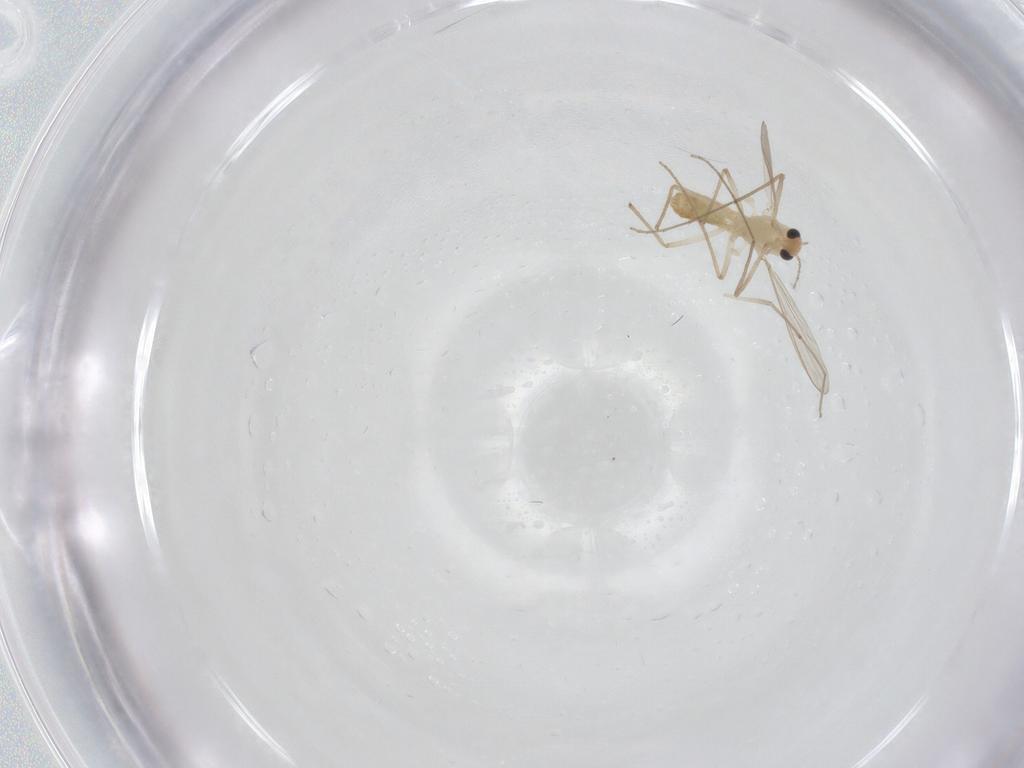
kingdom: Animalia
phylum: Arthropoda
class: Insecta
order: Diptera
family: Chironomidae
